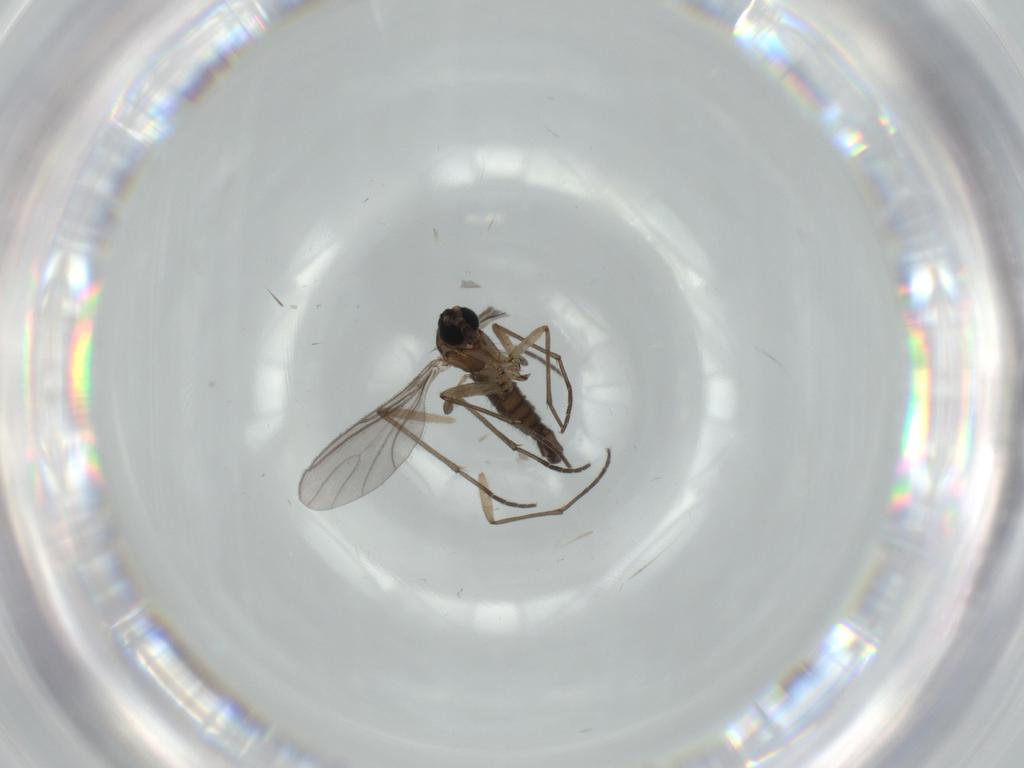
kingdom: Animalia
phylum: Arthropoda
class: Insecta
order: Diptera
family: Sciaridae
